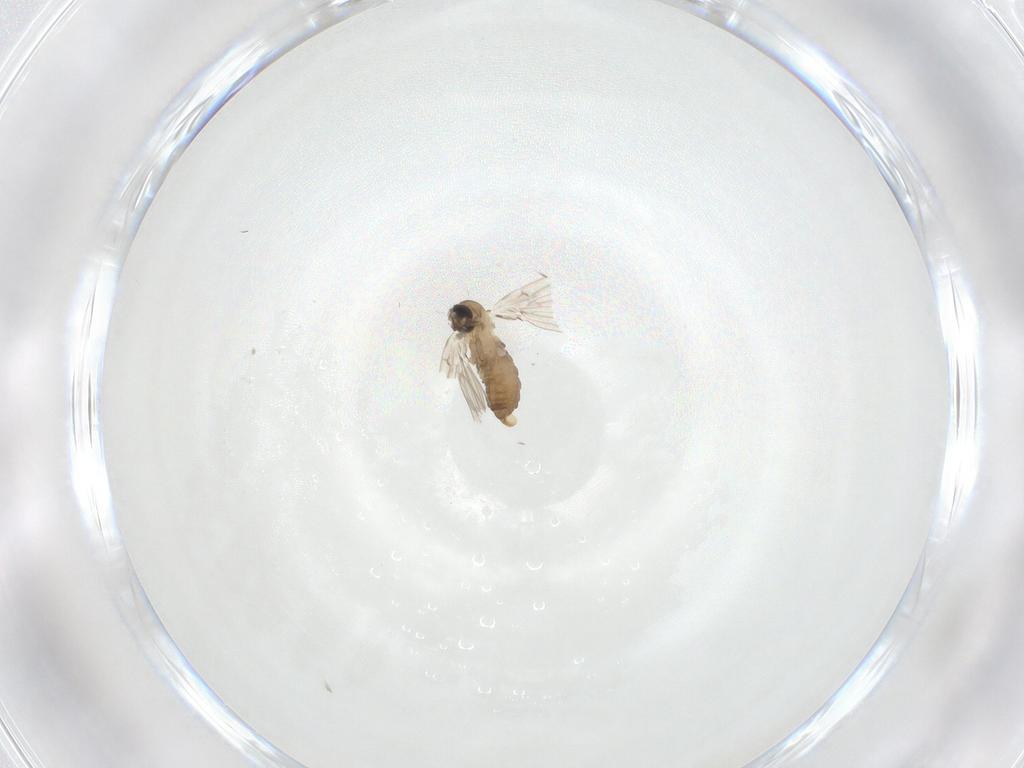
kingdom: Animalia
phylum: Arthropoda
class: Insecta
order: Diptera
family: Psychodidae
